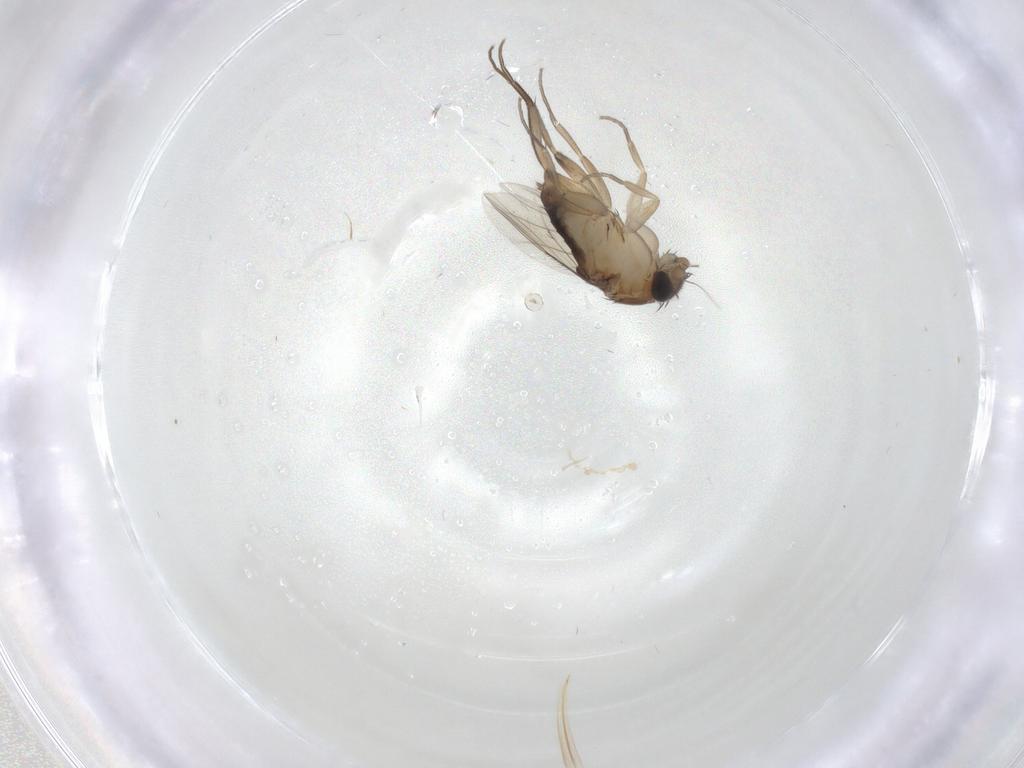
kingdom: Animalia
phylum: Arthropoda
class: Insecta
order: Diptera
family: Phoridae
